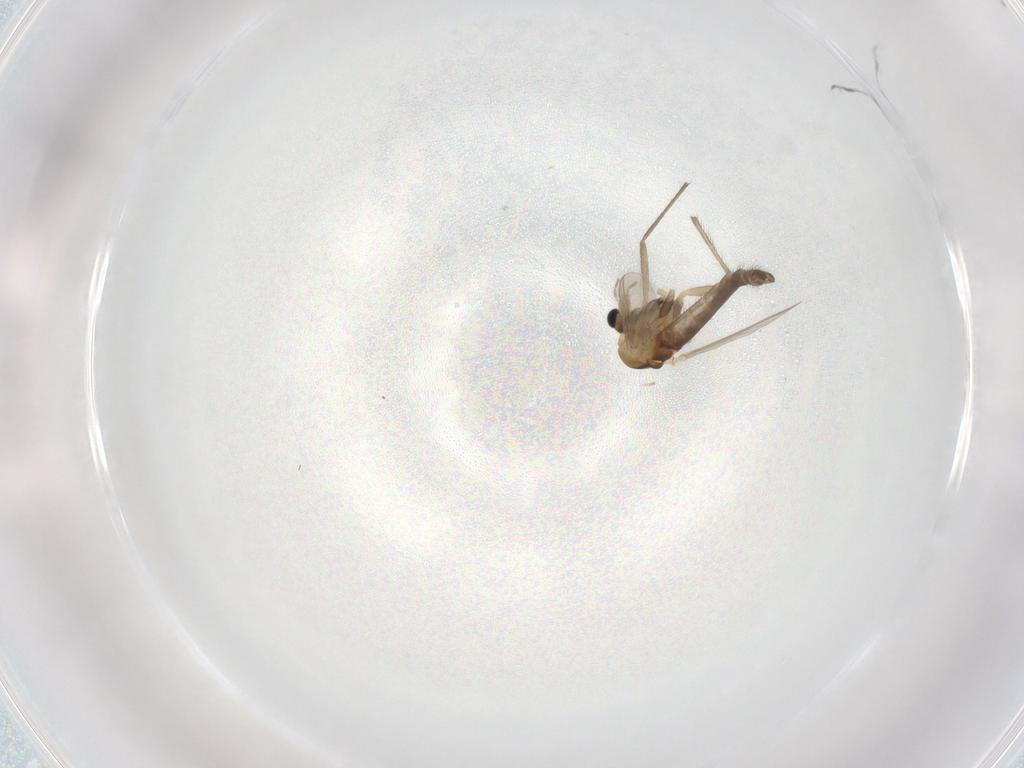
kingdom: Animalia
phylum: Arthropoda
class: Insecta
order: Diptera
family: Chironomidae
